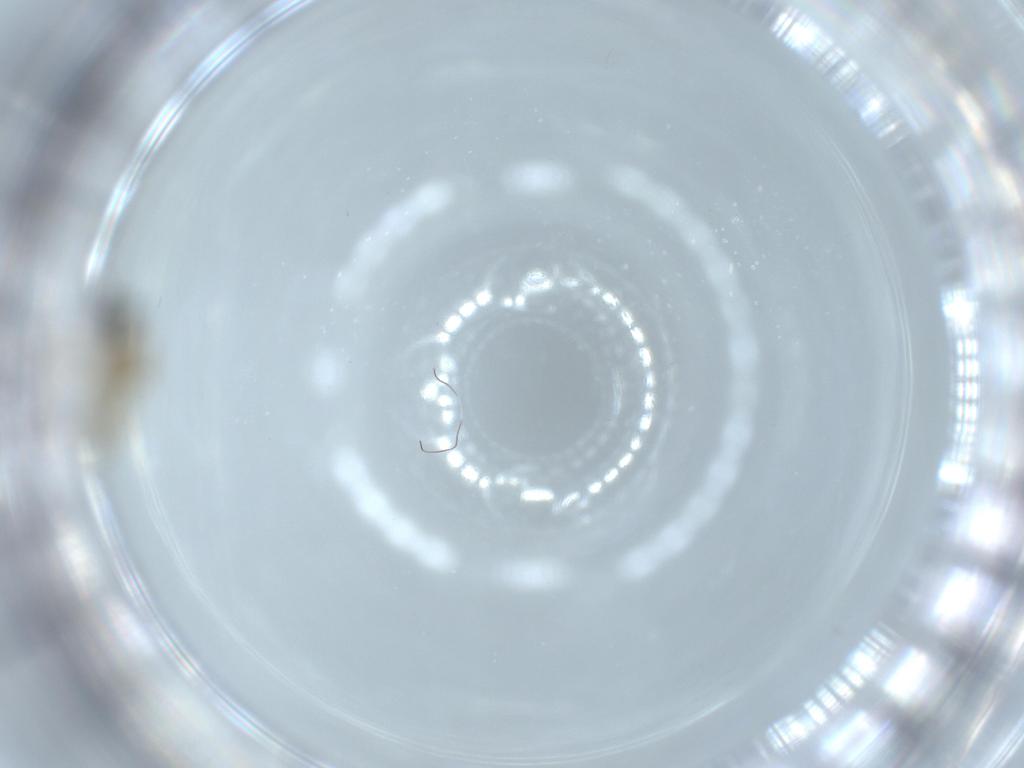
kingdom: Animalia
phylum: Arthropoda
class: Insecta
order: Diptera
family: Cecidomyiidae
